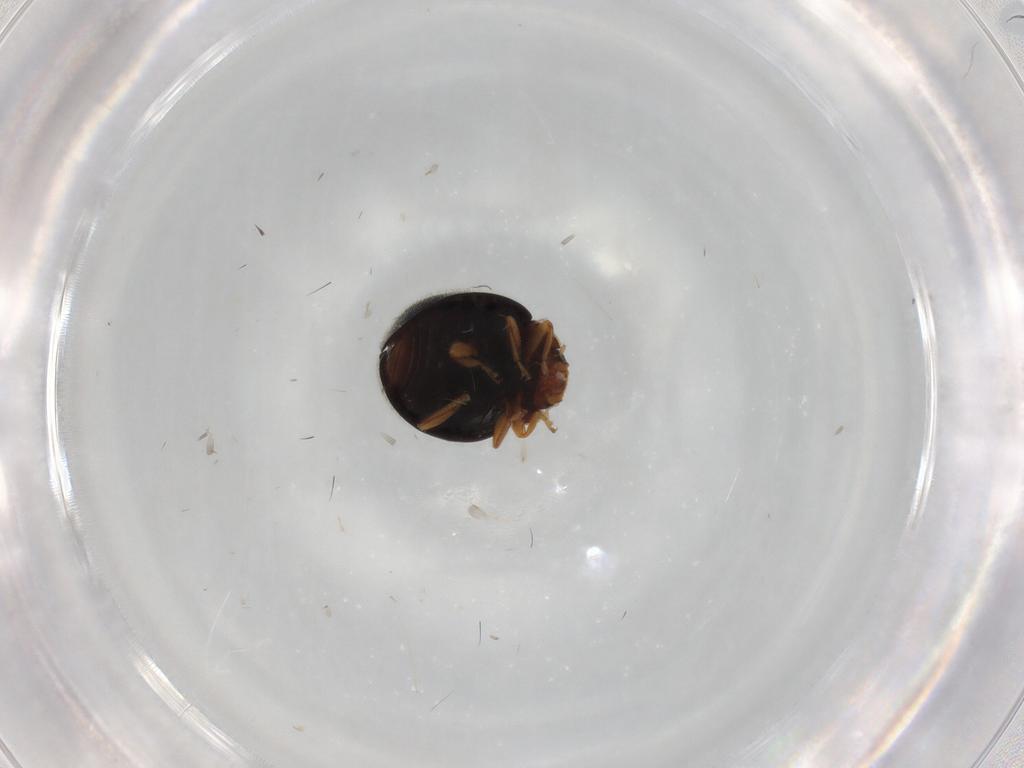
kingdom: Animalia
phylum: Arthropoda
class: Insecta
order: Coleoptera
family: Coccinellidae
